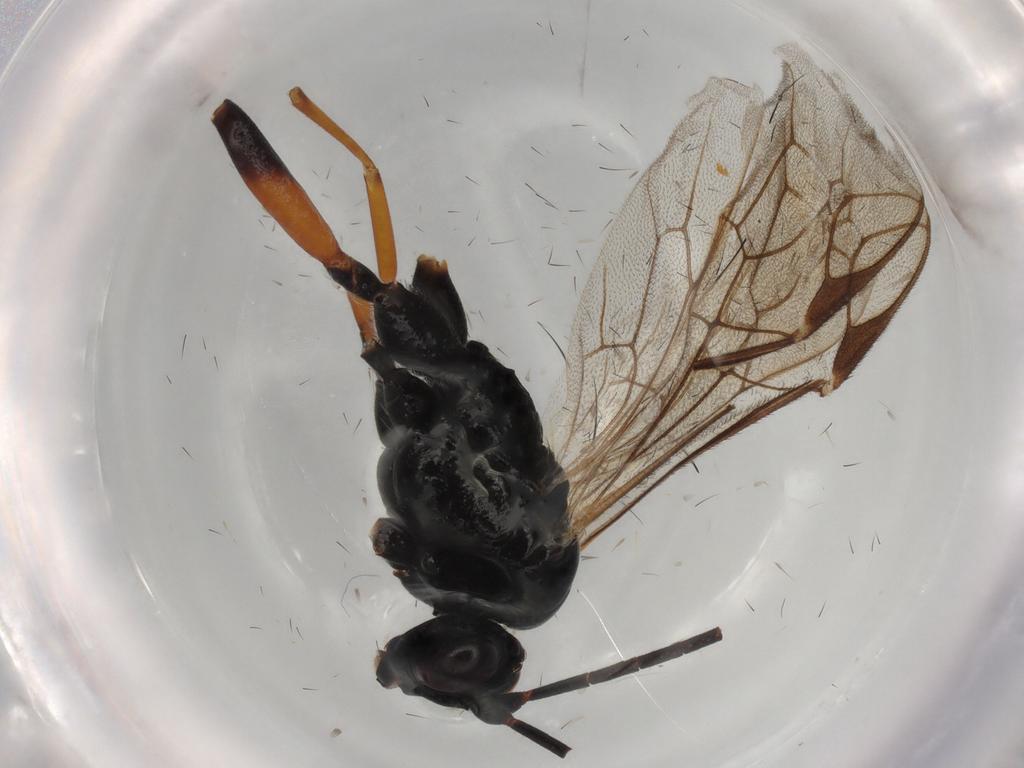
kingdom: Animalia
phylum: Arthropoda
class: Insecta
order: Hymenoptera
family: Ichneumonidae
